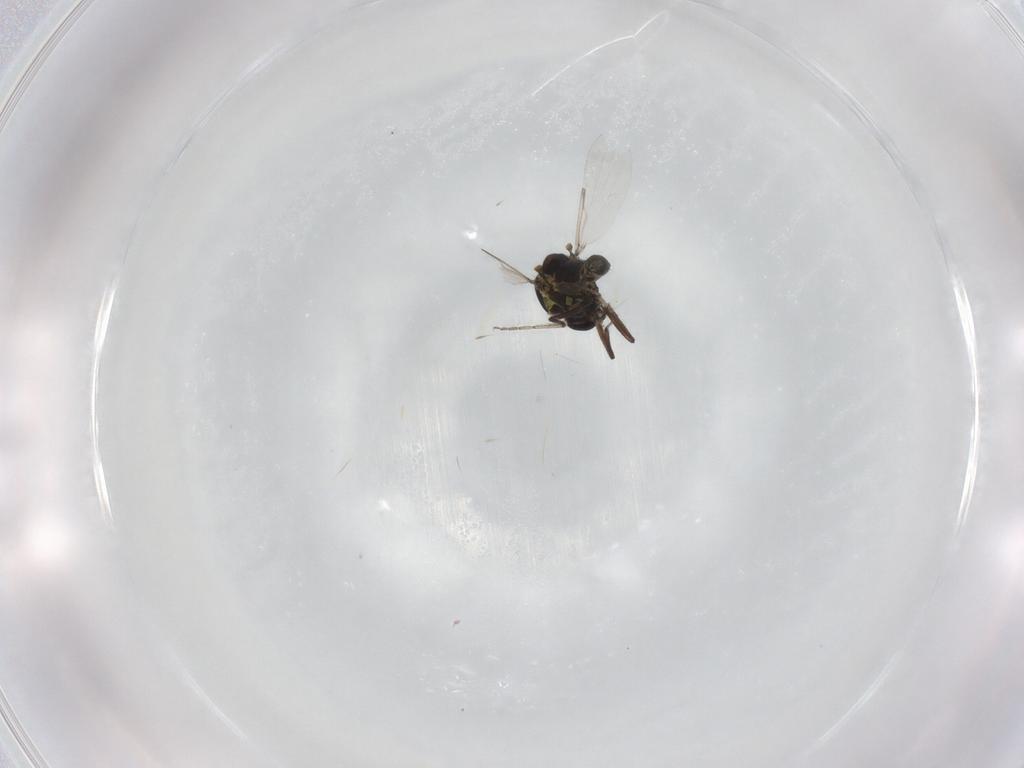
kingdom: Animalia
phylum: Arthropoda
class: Insecta
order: Diptera
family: Ceratopogonidae
